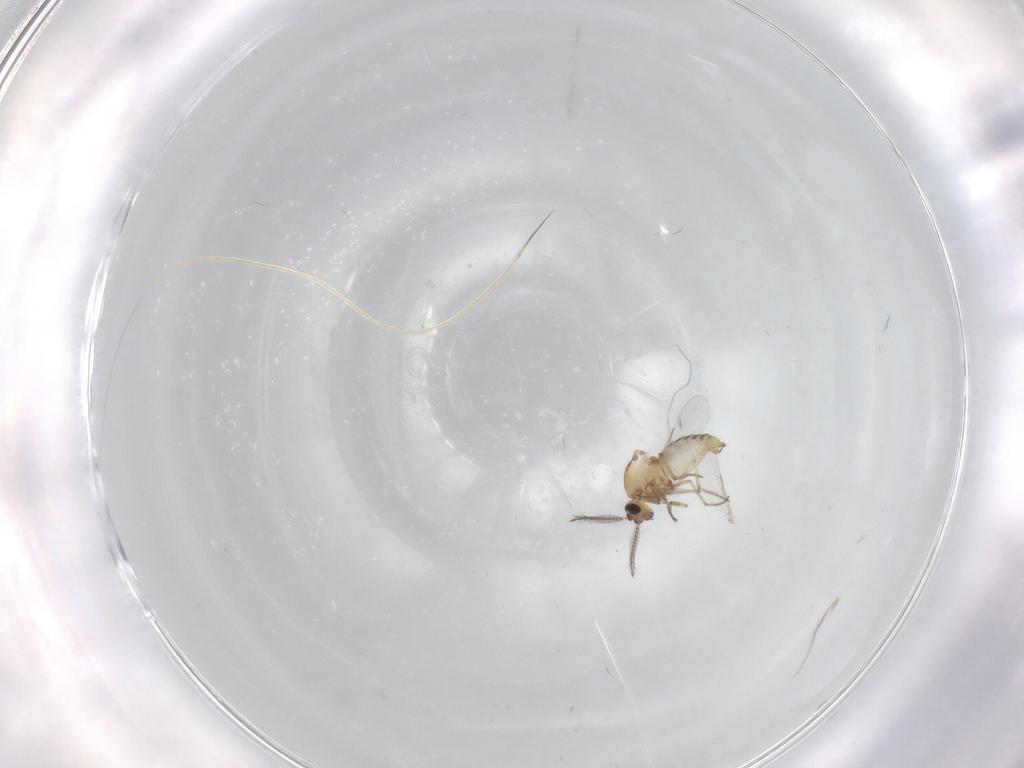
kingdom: Animalia
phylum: Arthropoda
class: Insecta
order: Diptera
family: Ceratopogonidae
